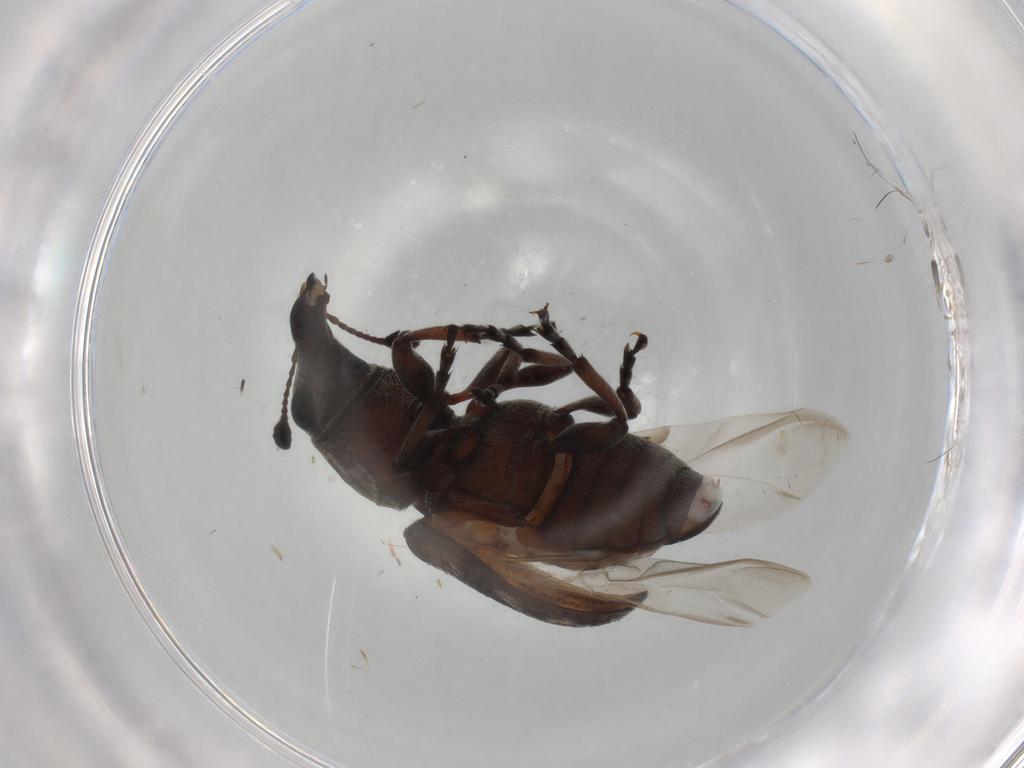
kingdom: Animalia
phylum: Arthropoda
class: Insecta
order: Coleoptera
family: Anthribidae
